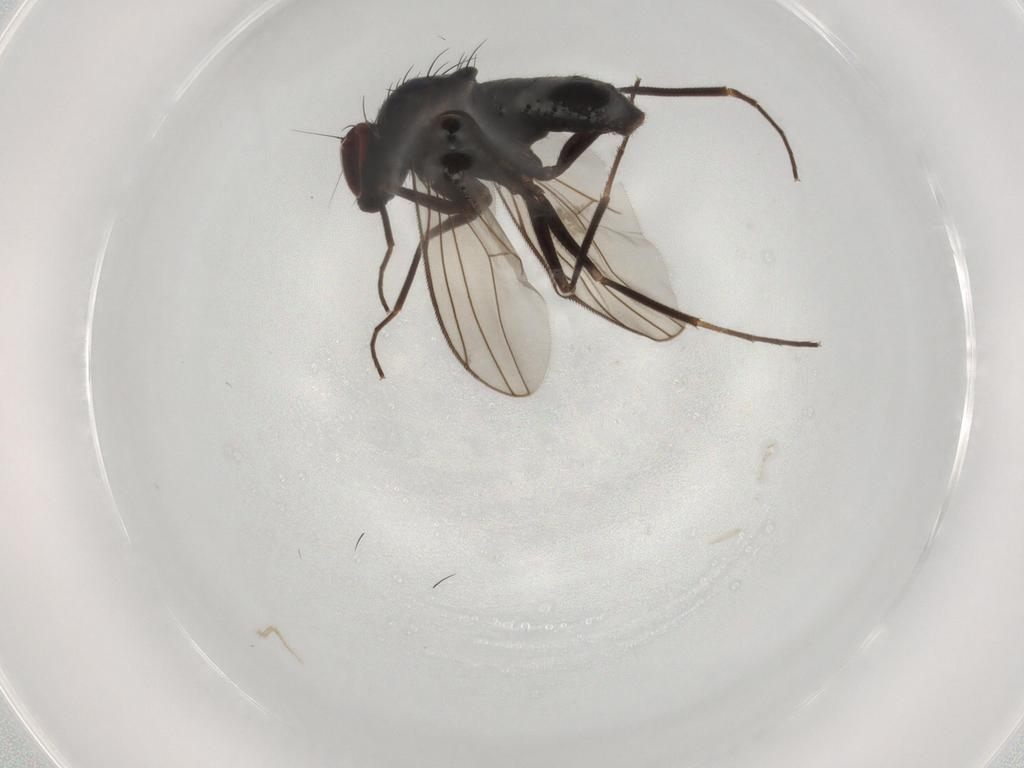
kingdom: Animalia
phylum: Arthropoda
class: Insecta
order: Diptera
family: Dolichopodidae
